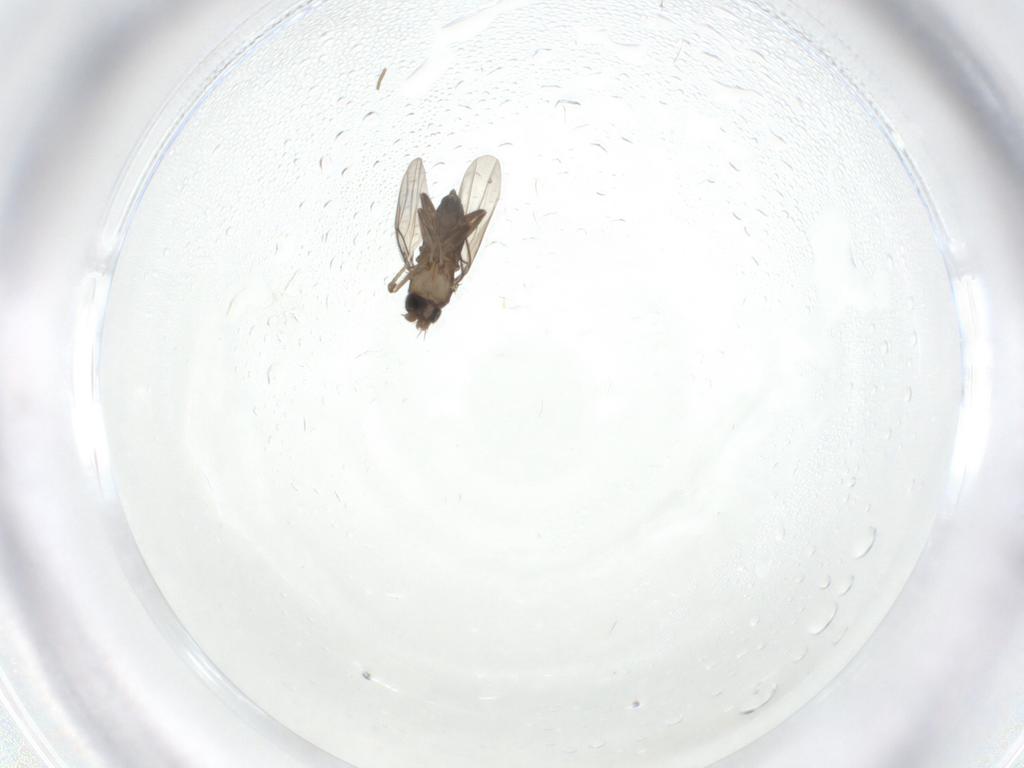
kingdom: Animalia
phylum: Arthropoda
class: Insecta
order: Diptera
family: Phoridae
